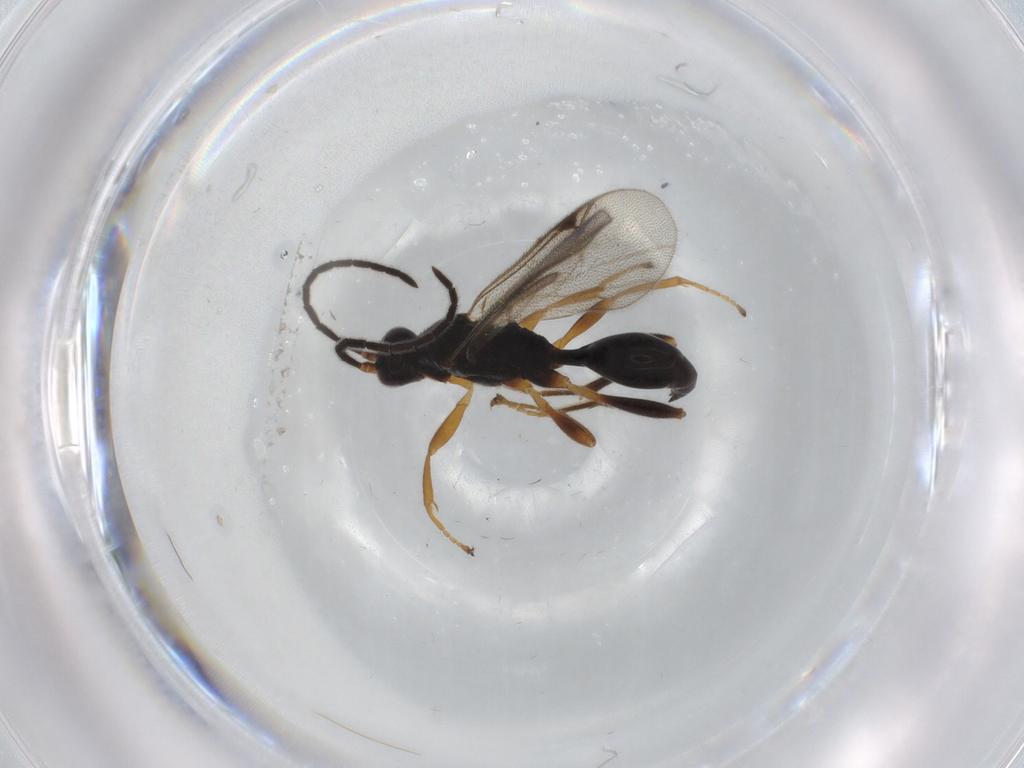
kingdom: Animalia
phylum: Arthropoda
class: Insecta
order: Hymenoptera
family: Proctotrupidae
